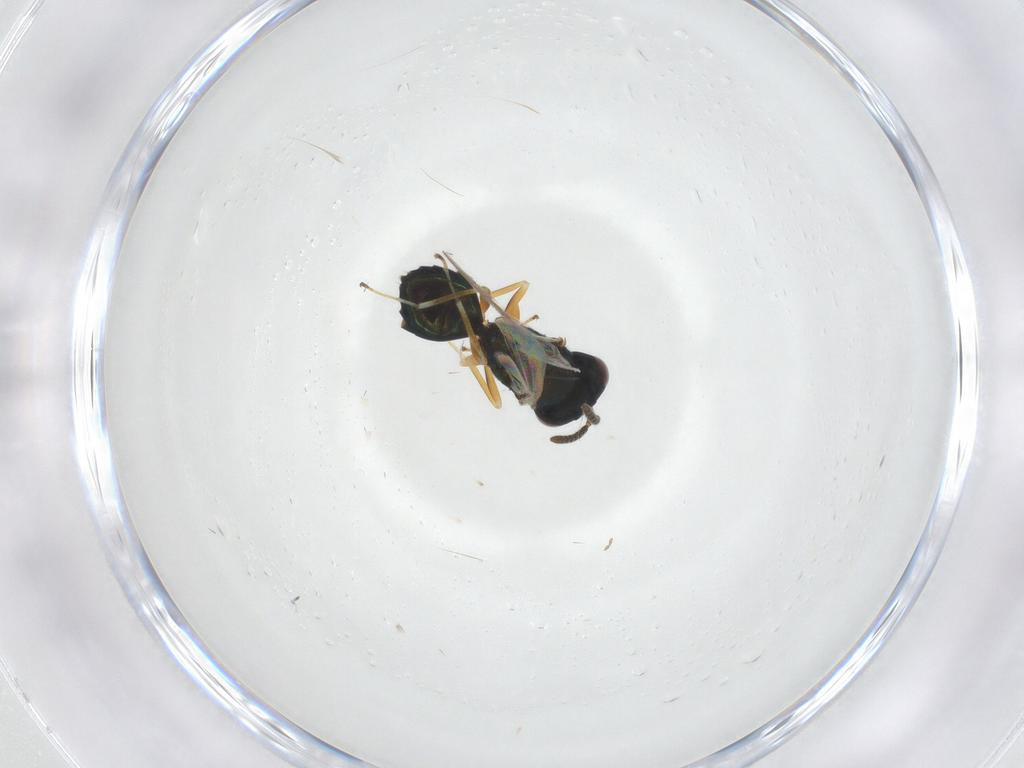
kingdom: Animalia
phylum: Arthropoda
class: Insecta
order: Hymenoptera
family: Pteromalidae
